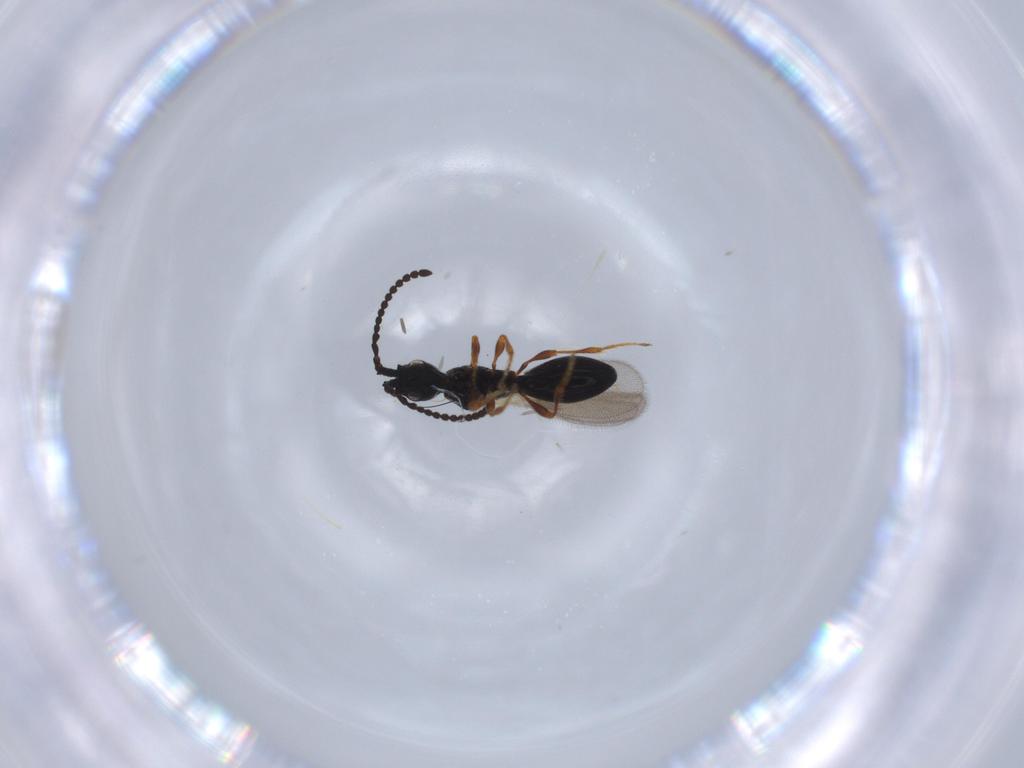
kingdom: Animalia
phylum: Arthropoda
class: Insecta
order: Hymenoptera
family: Diapriidae
